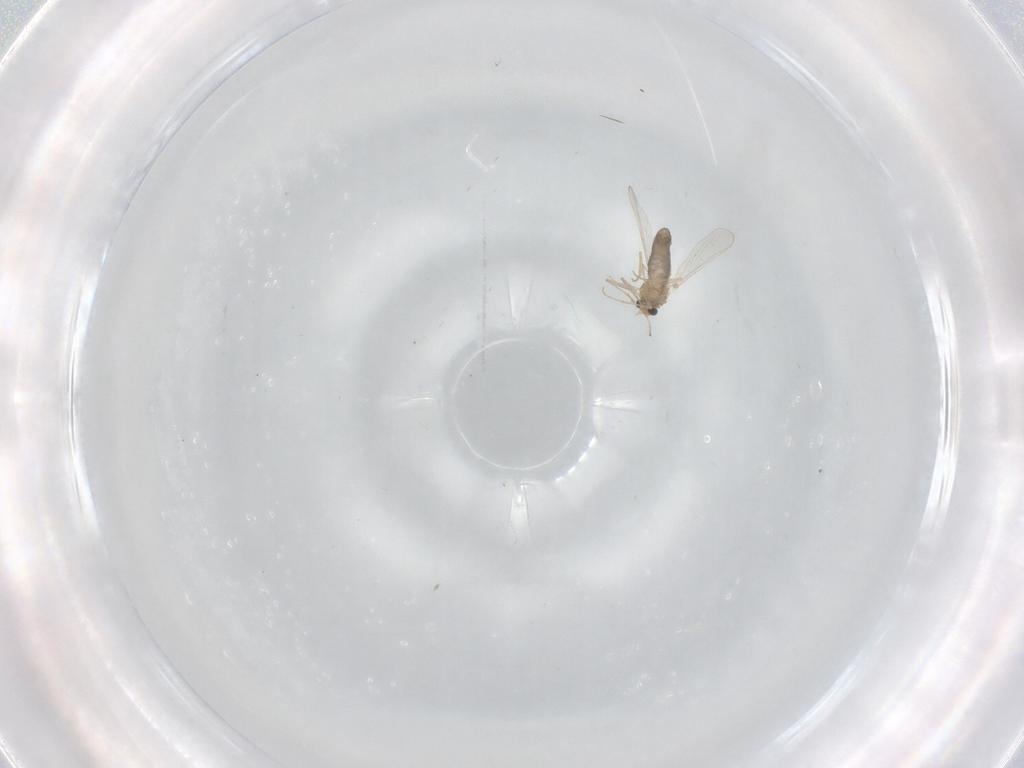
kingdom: Animalia
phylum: Arthropoda
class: Insecta
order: Diptera
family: Chironomidae
